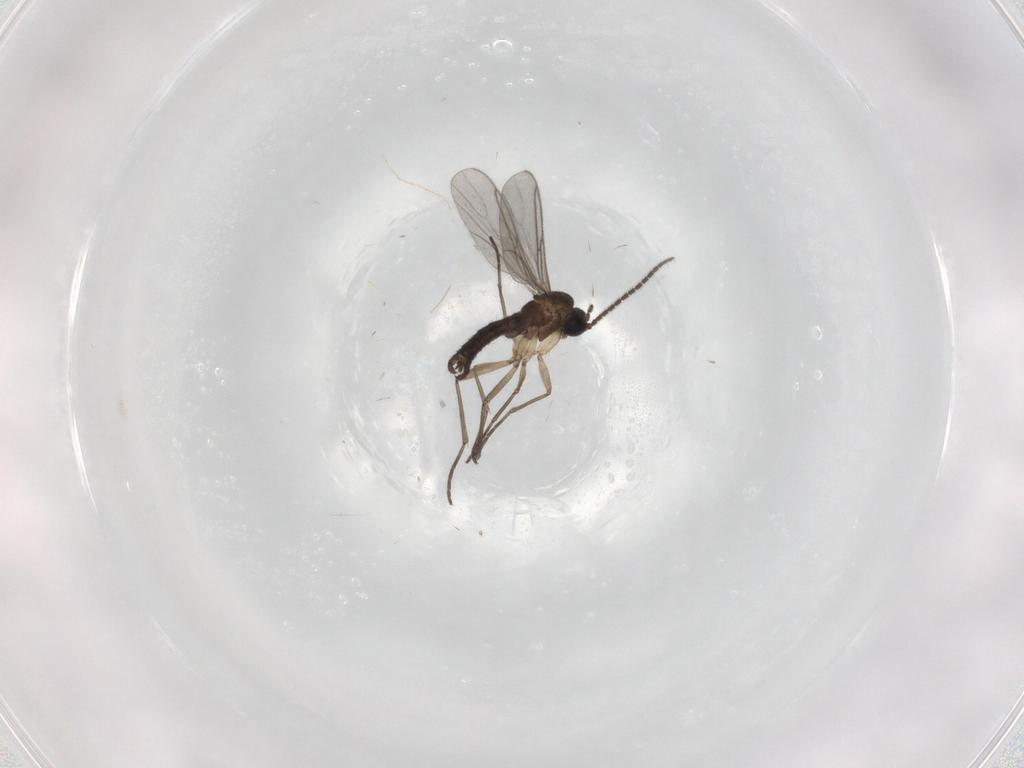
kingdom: Animalia
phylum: Arthropoda
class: Insecta
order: Diptera
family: Sciaridae
